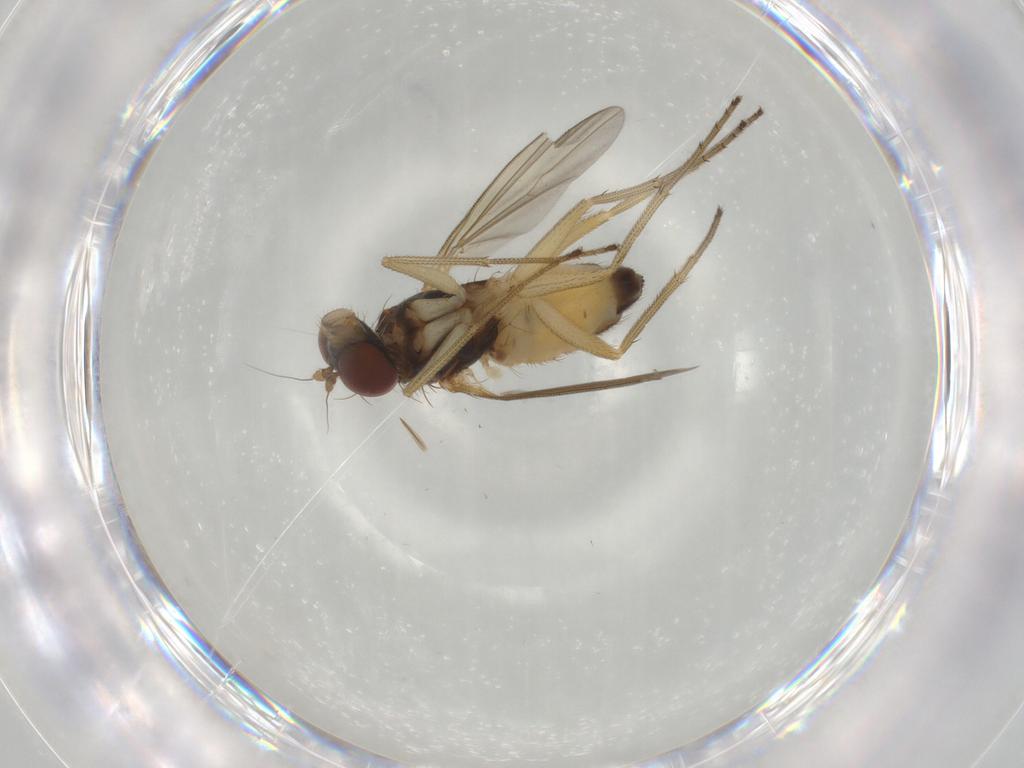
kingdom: Animalia
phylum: Arthropoda
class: Insecta
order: Diptera
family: Dolichopodidae
